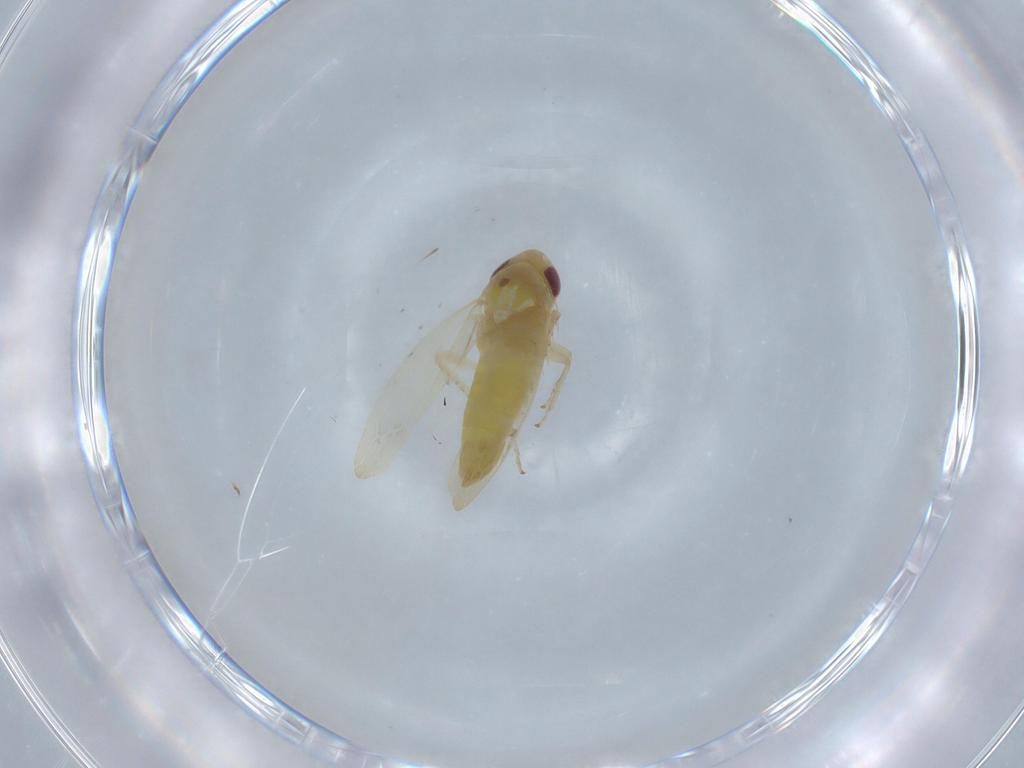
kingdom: Animalia
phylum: Arthropoda
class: Insecta
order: Hemiptera
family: Cicadellidae
